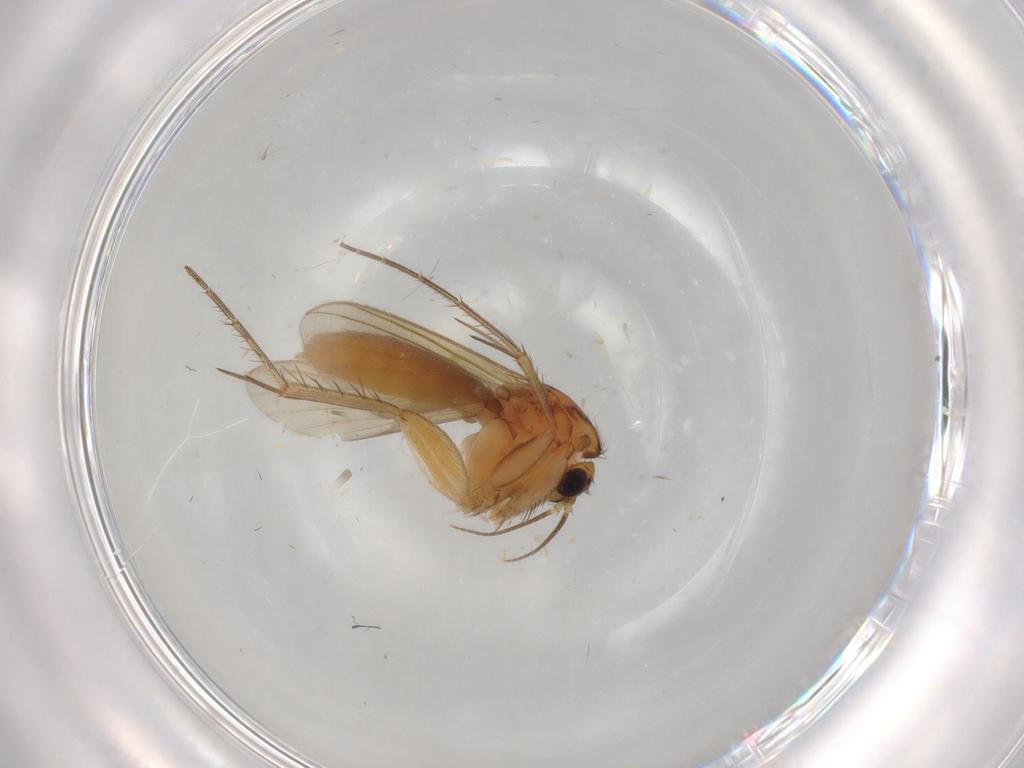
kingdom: Animalia
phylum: Arthropoda
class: Insecta
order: Diptera
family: Mycetophilidae
